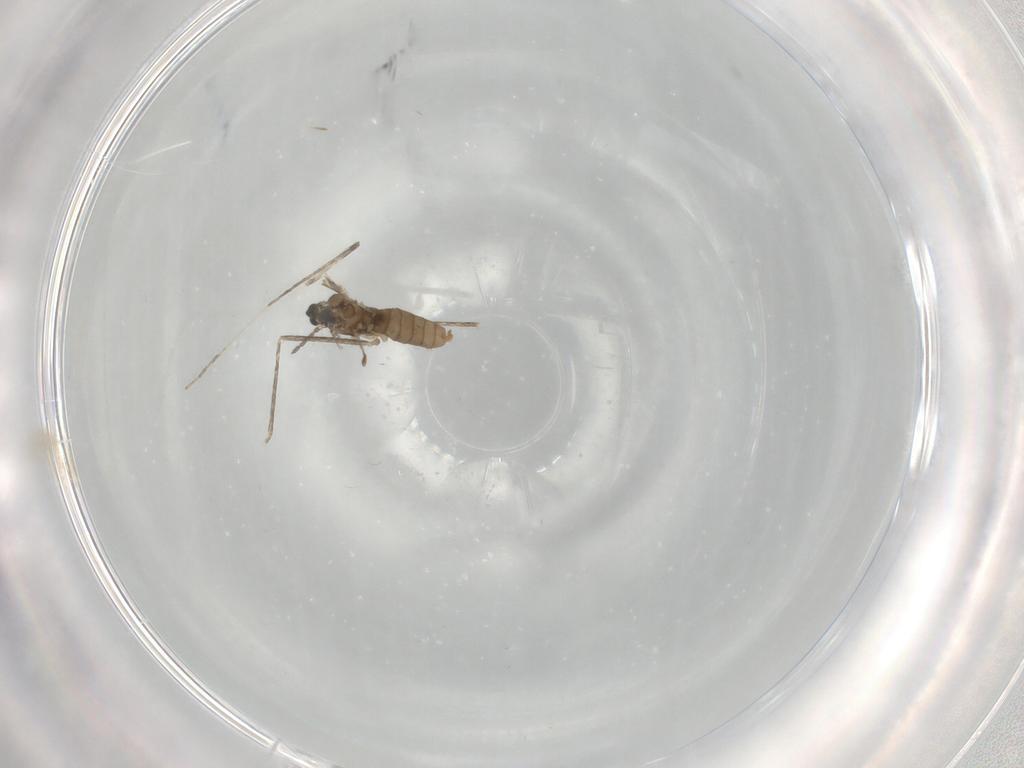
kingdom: Animalia
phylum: Arthropoda
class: Insecta
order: Diptera
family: Cecidomyiidae
